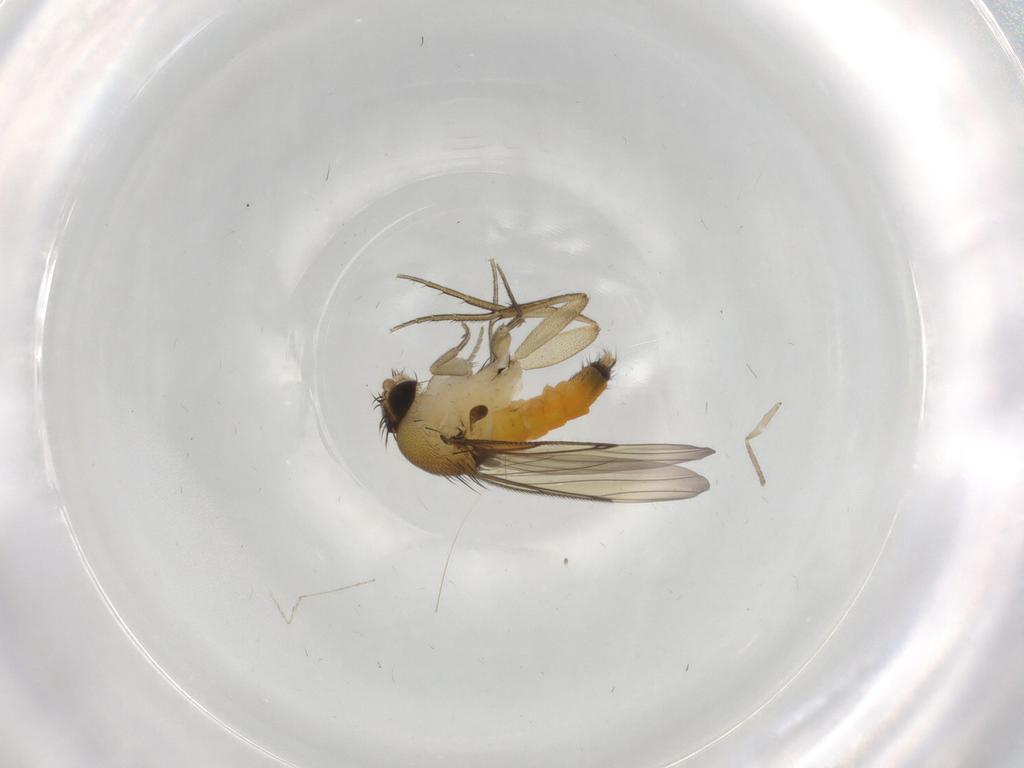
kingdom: Animalia
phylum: Arthropoda
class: Insecta
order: Diptera
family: Phoridae
